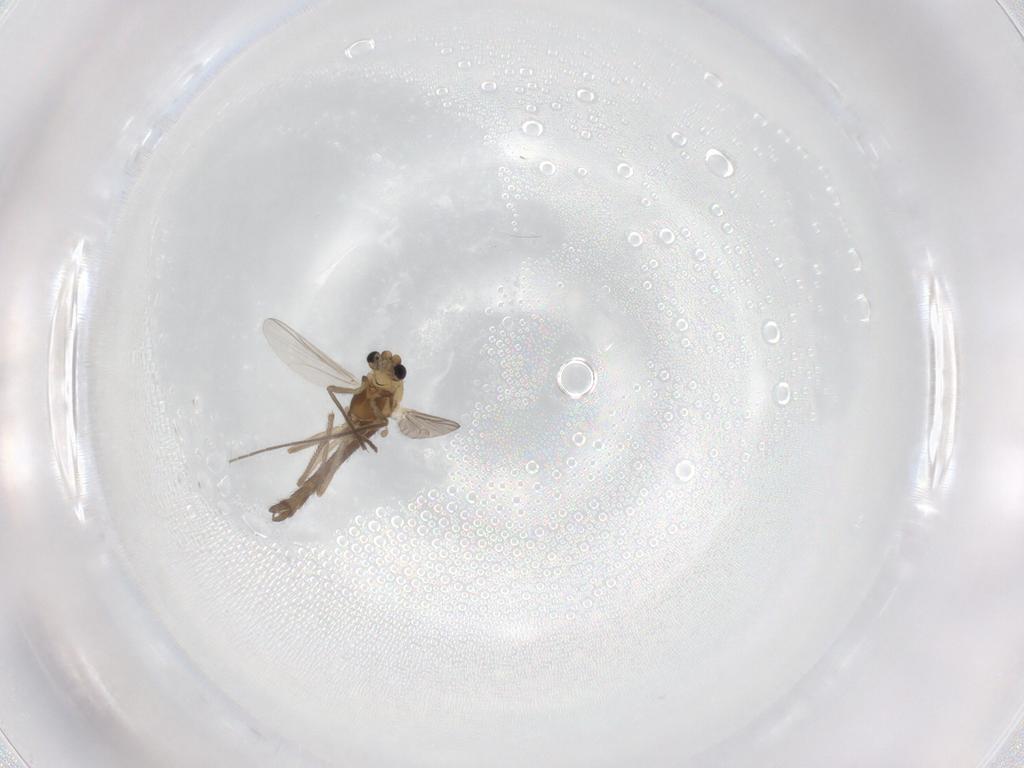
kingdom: Animalia
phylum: Arthropoda
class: Insecta
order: Diptera
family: Chironomidae
